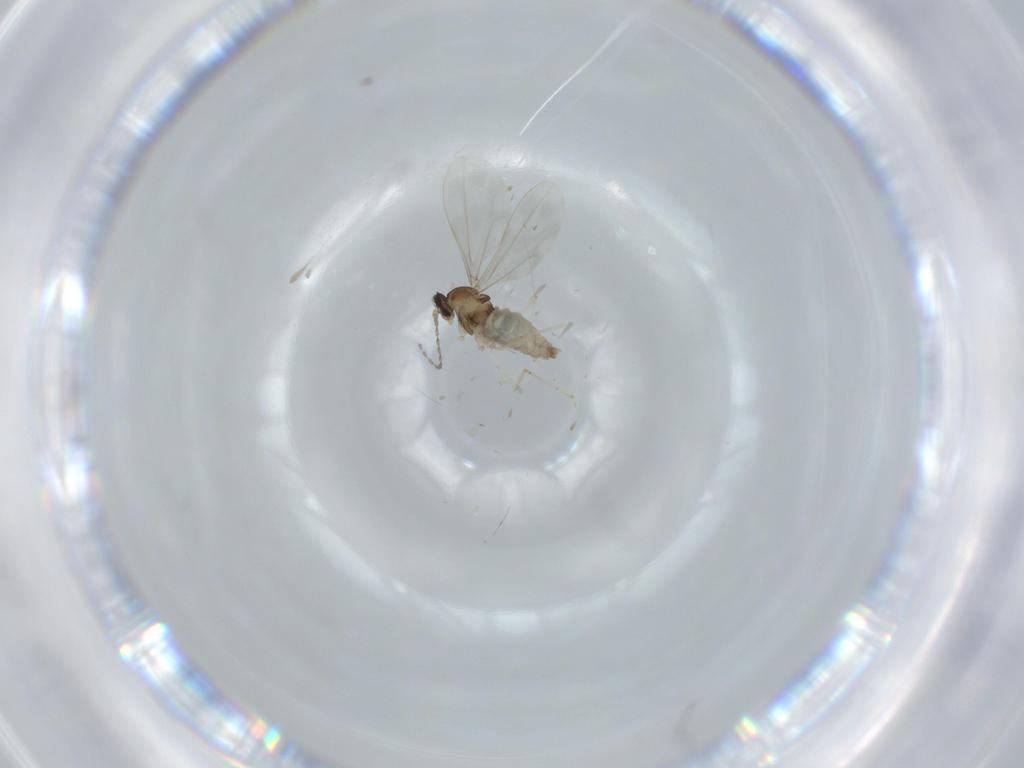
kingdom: Animalia
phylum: Arthropoda
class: Insecta
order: Diptera
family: Cecidomyiidae
